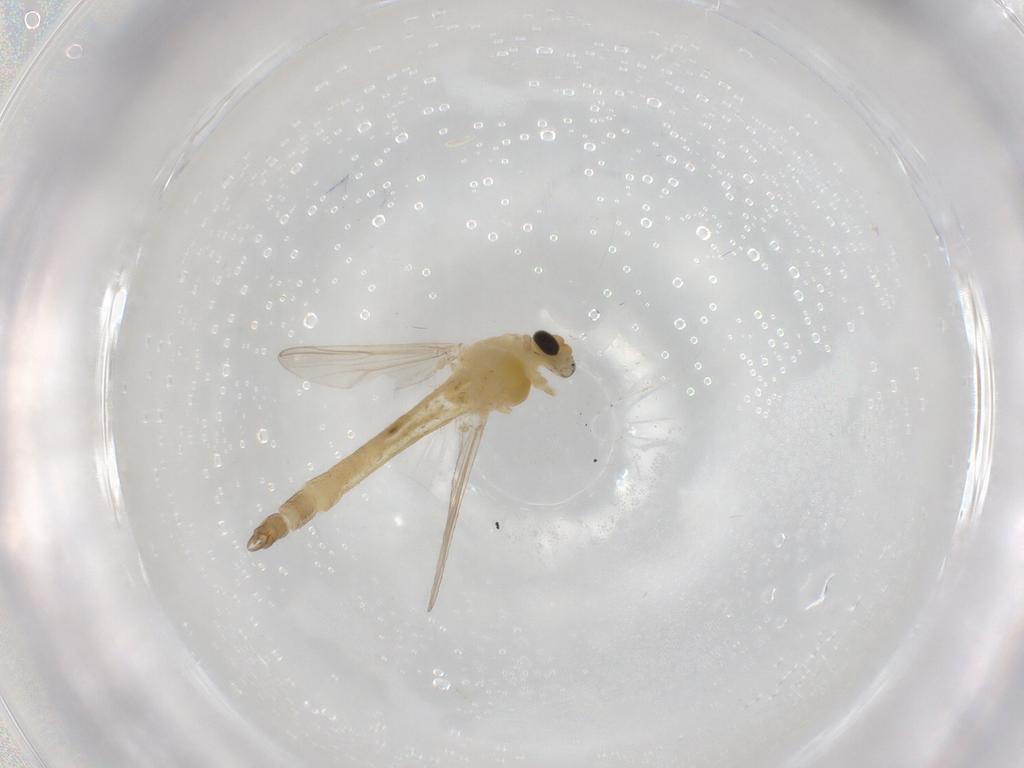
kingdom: Animalia
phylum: Arthropoda
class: Insecta
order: Diptera
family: Chironomidae
